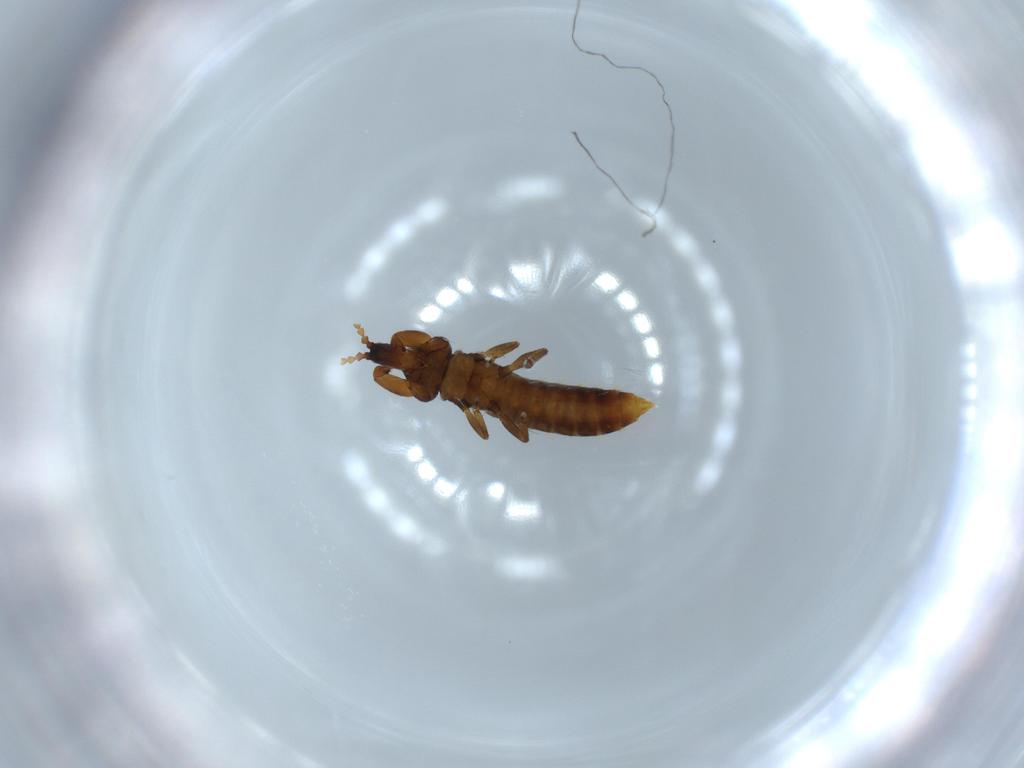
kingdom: Animalia
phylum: Arthropoda
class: Insecta
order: Thysanoptera
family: Phlaeothripidae
